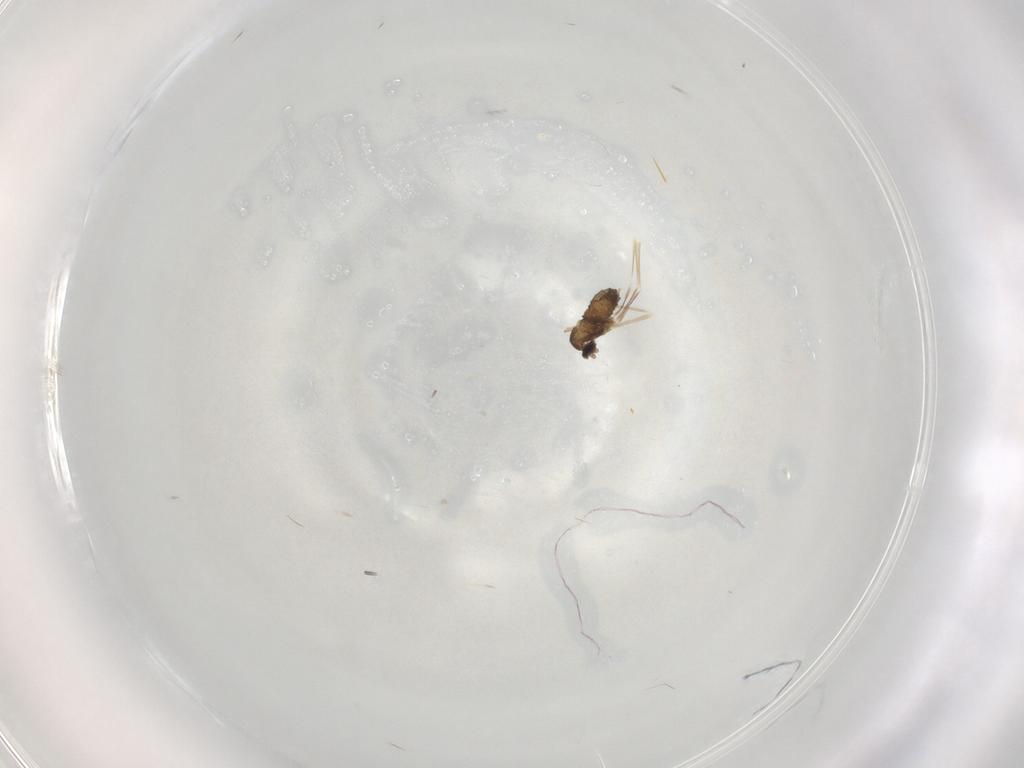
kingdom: Animalia
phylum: Arthropoda
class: Insecta
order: Diptera
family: Cecidomyiidae
